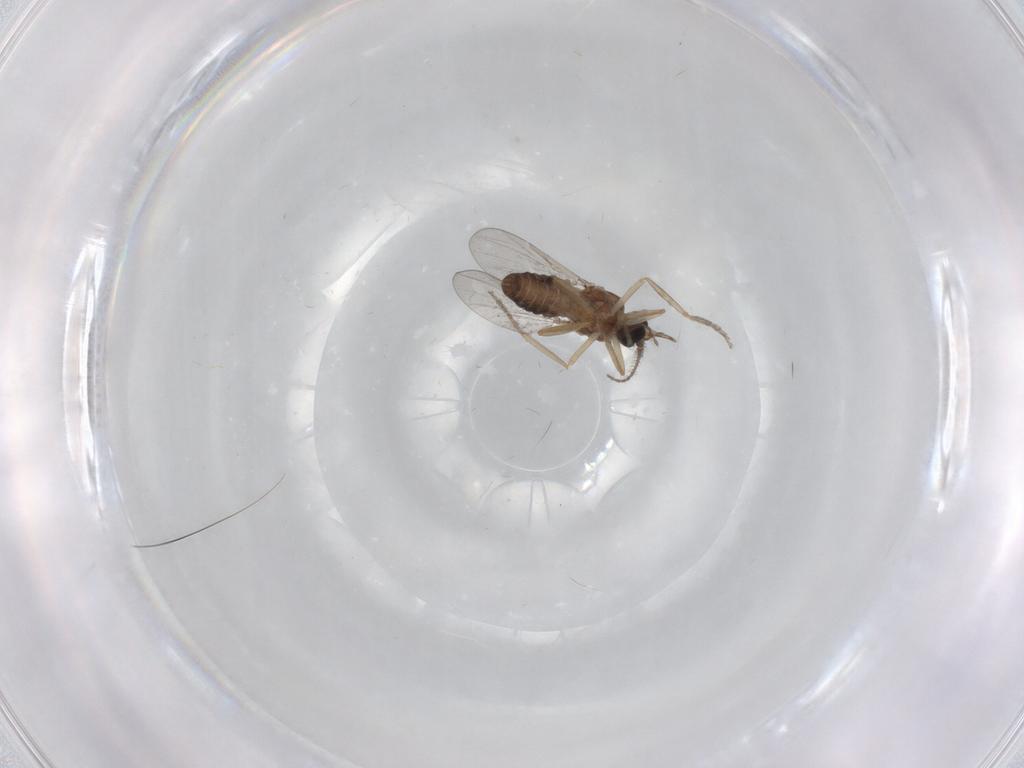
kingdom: Animalia
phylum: Arthropoda
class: Insecta
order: Diptera
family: Ceratopogonidae
